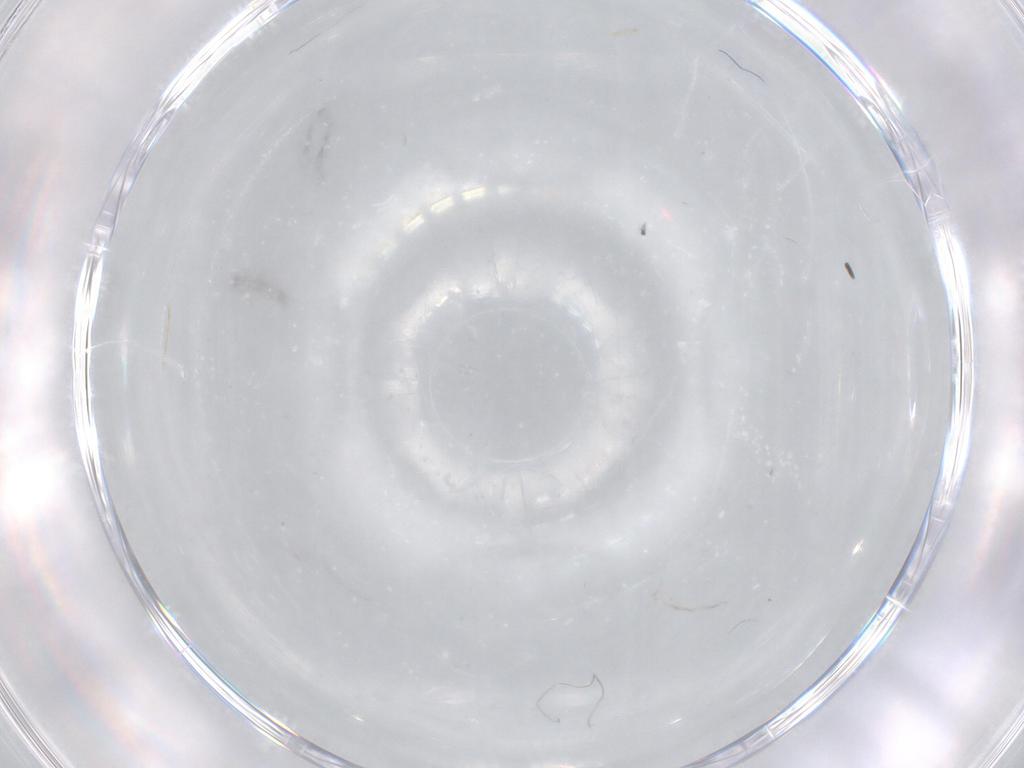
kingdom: Animalia
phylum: Arthropoda
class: Insecta
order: Diptera
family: Cecidomyiidae
